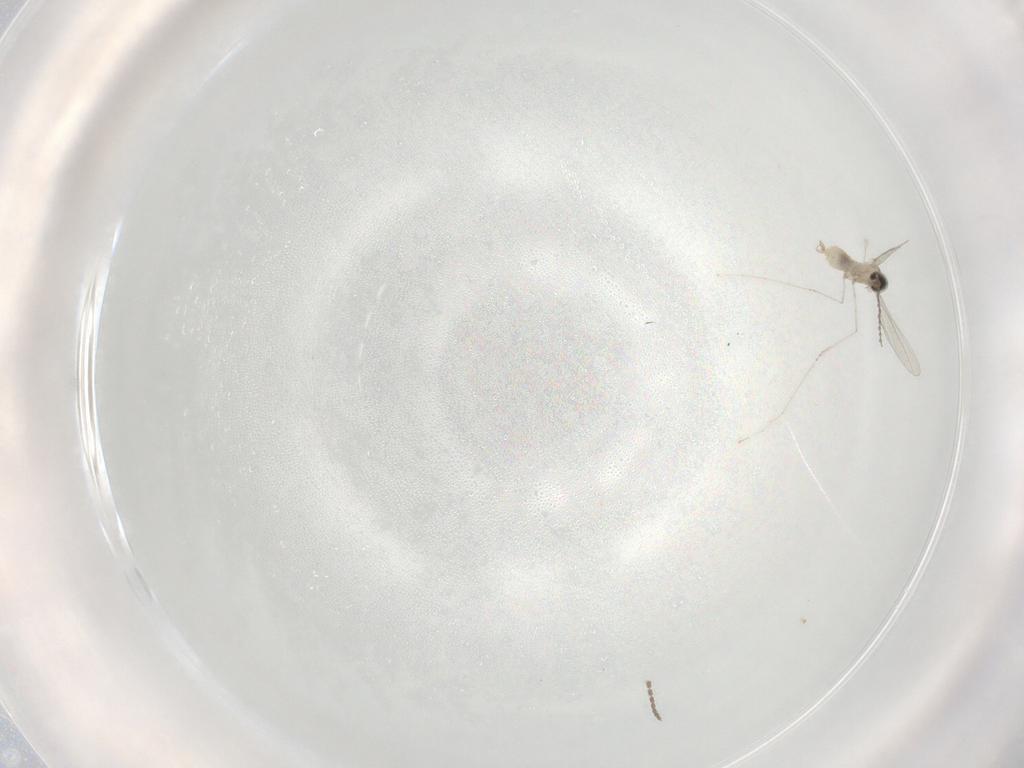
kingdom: Animalia
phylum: Arthropoda
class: Insecta
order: Diptera
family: Cecidomyiidae
